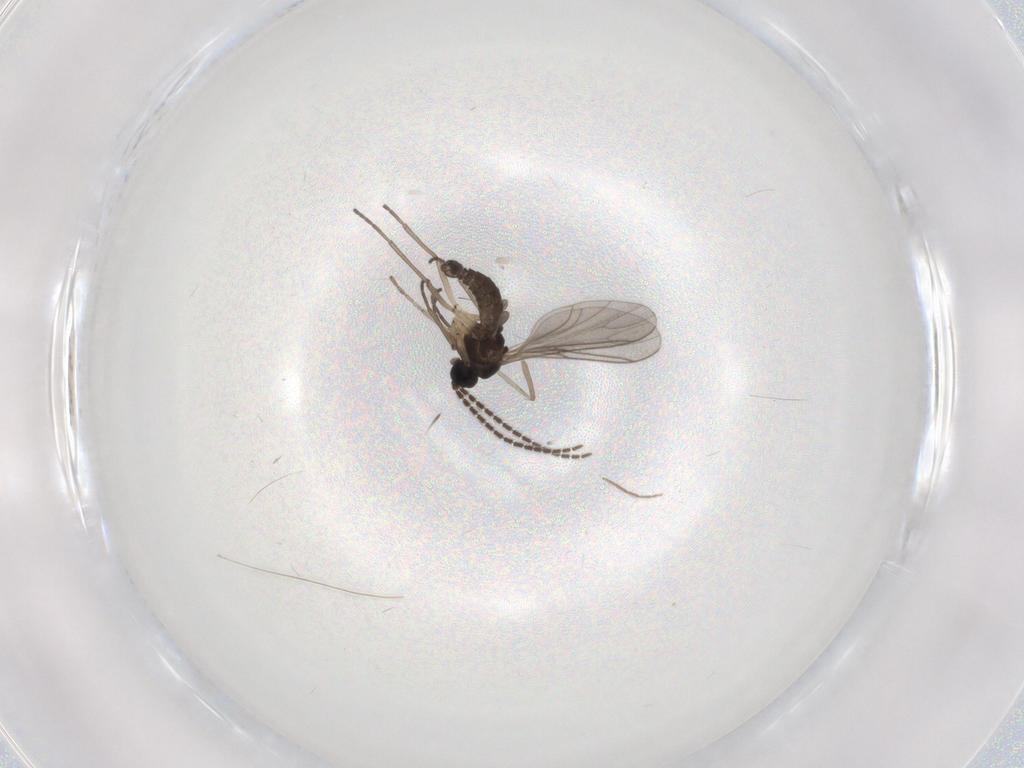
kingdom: Animalia
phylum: Arthropoda
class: Insecta
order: Diptera
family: Sciaridae
